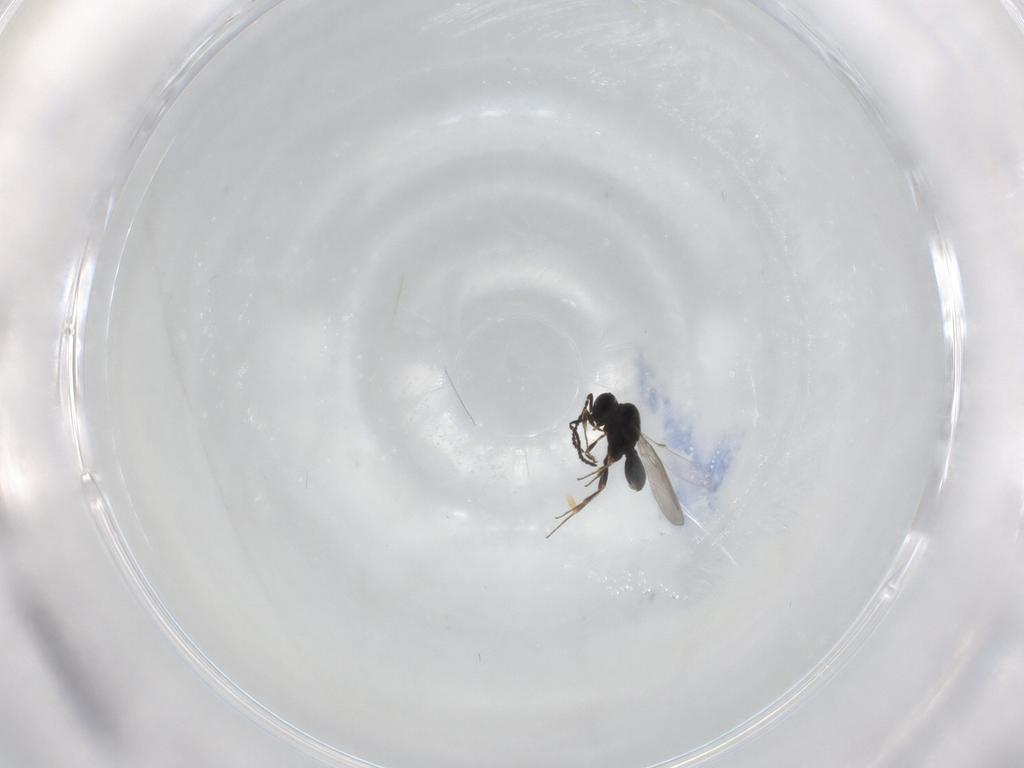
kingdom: Animalia
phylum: Arthropoda
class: Insecta
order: Hymenoptera
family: Scelionidae
